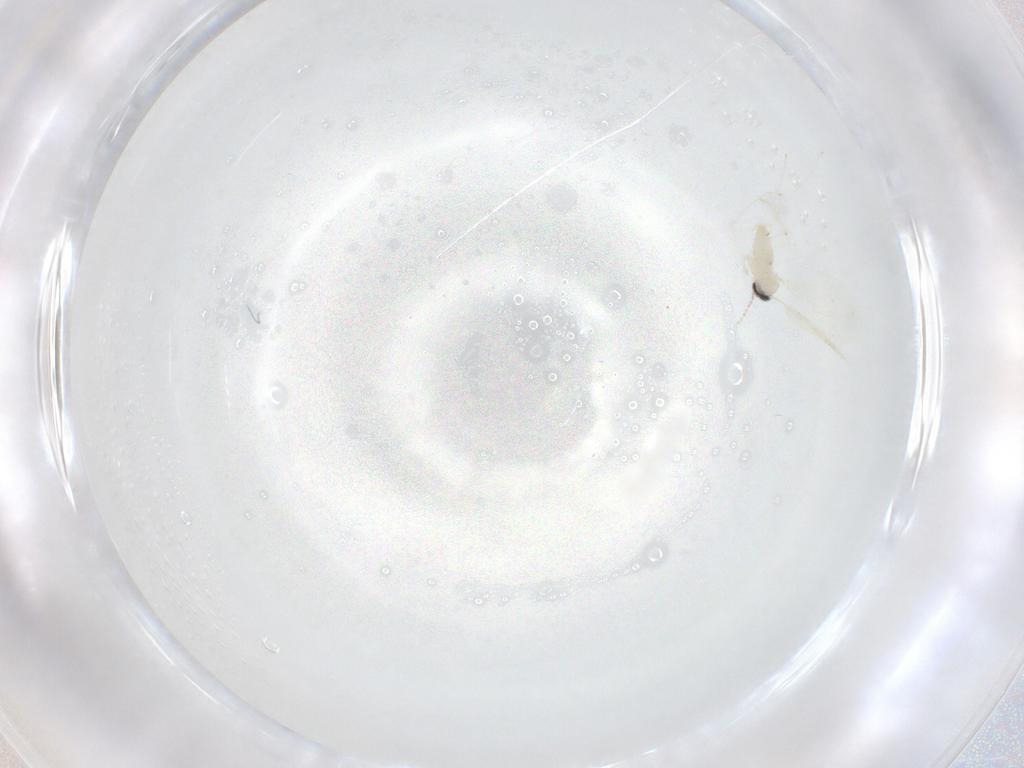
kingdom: Animalia
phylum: Arthropoda
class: Insecta
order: Diptera
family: Cecidomyiidae
